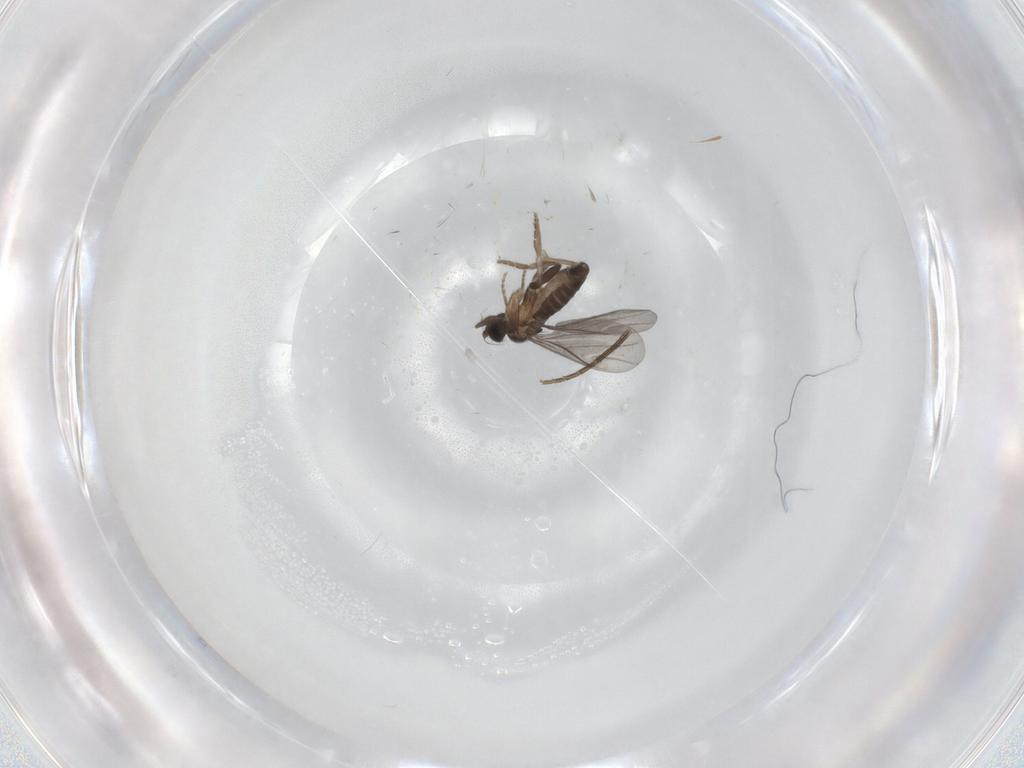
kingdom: Animalia
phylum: Arthropoda
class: Insecta
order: Diptera
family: Phoridae
